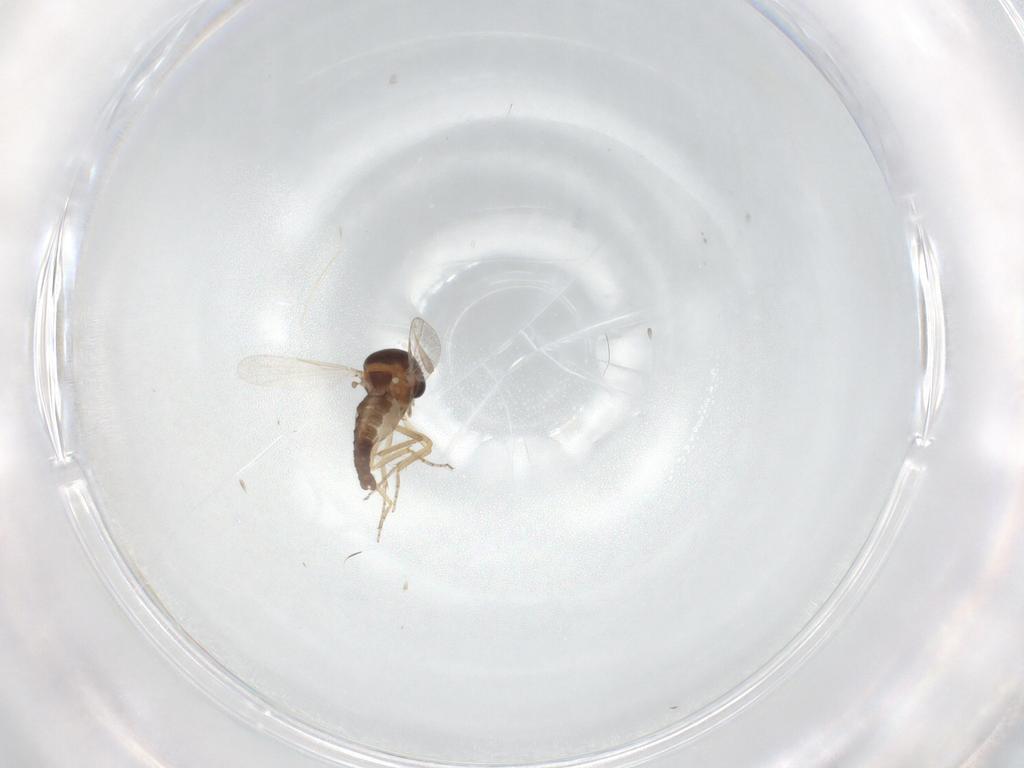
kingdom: Animalia
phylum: Arthropoda
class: Insecta
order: Diptera
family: Ceratopogonidae
